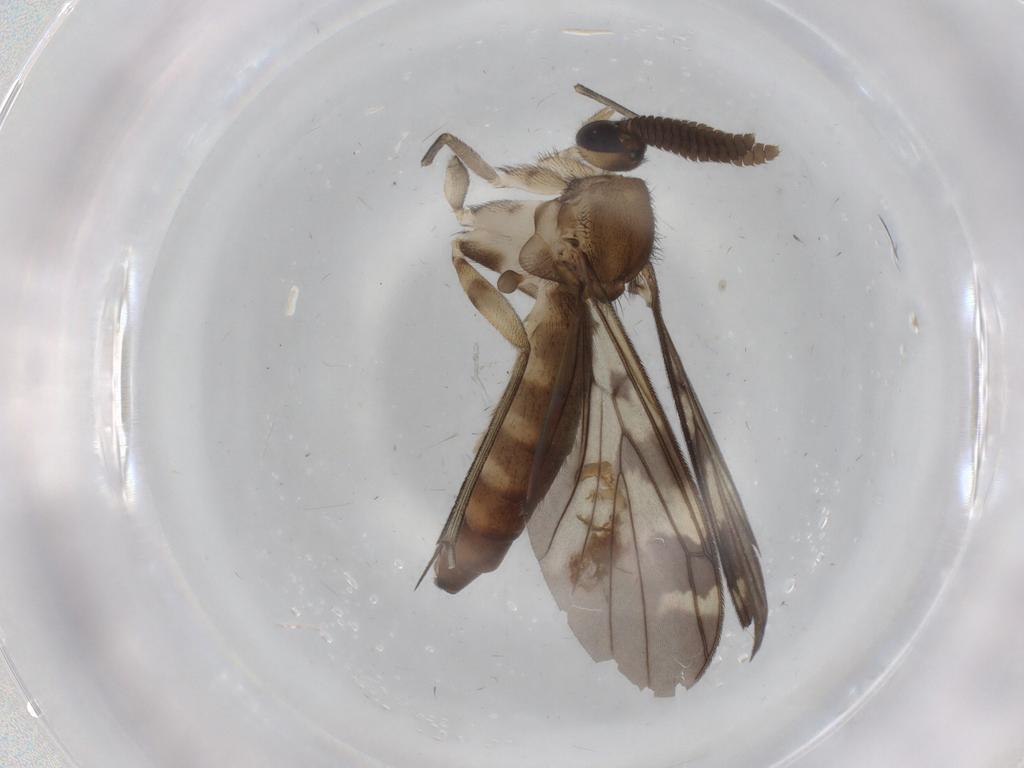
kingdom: Animalia
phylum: Arthropoda
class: Insecta
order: Diptera
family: Keroplatidae
